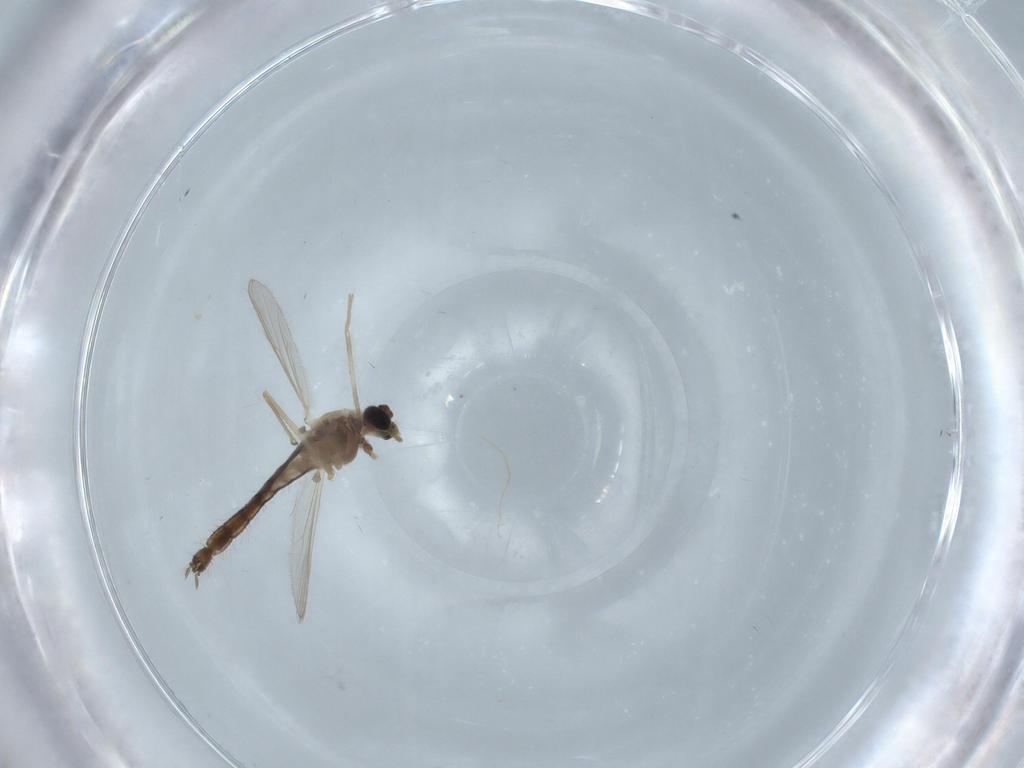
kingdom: Animalia
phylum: Arthropoda
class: Insecta
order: Diptera
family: Chironomidae
